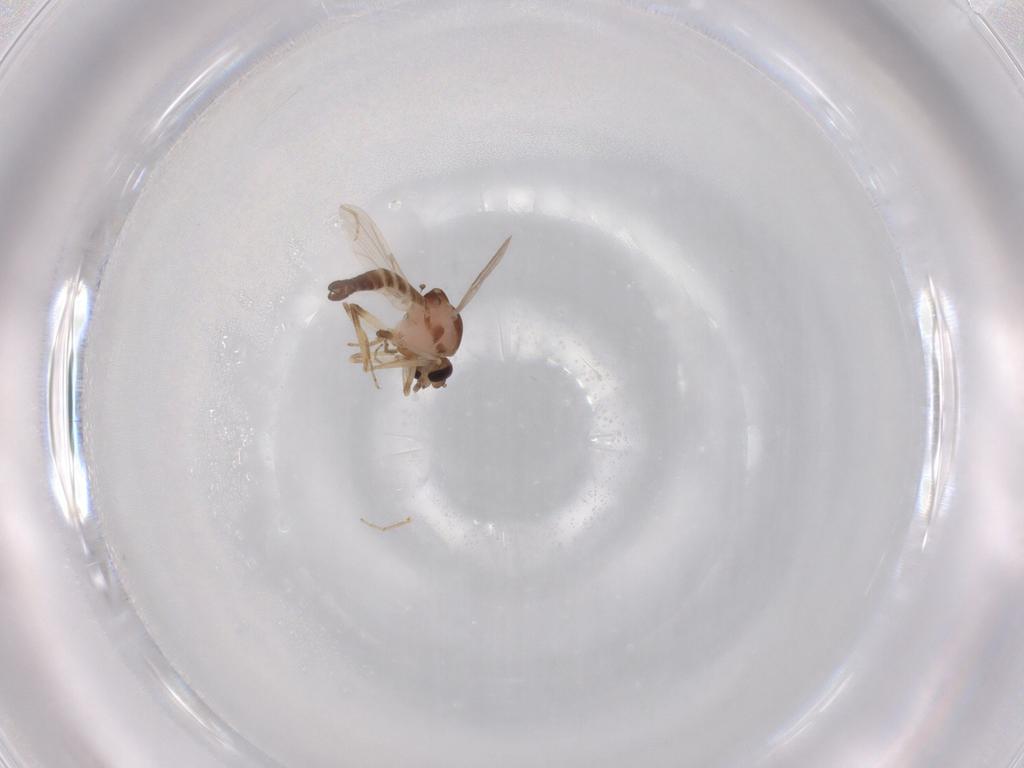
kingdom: Animalia
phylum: Arthropoda
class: Insecta
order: Diptera
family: Ceratopogonidae
